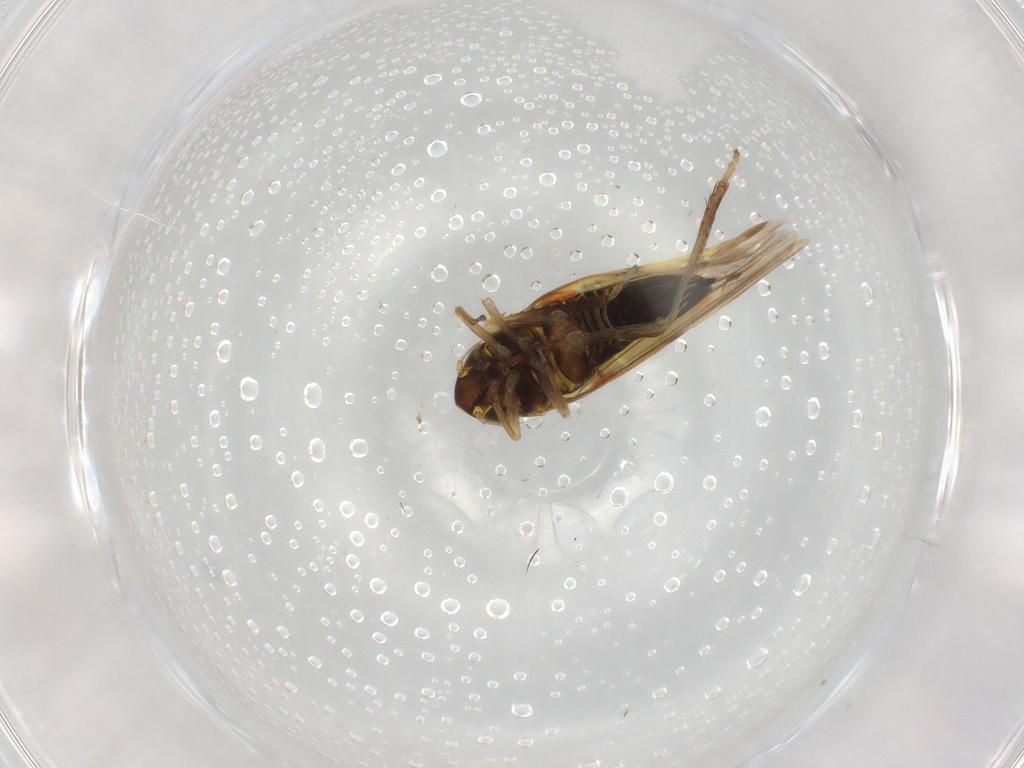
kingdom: Animalia
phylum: Arthropoda
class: Insecta
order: Hemiptera
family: Cicadellidae
